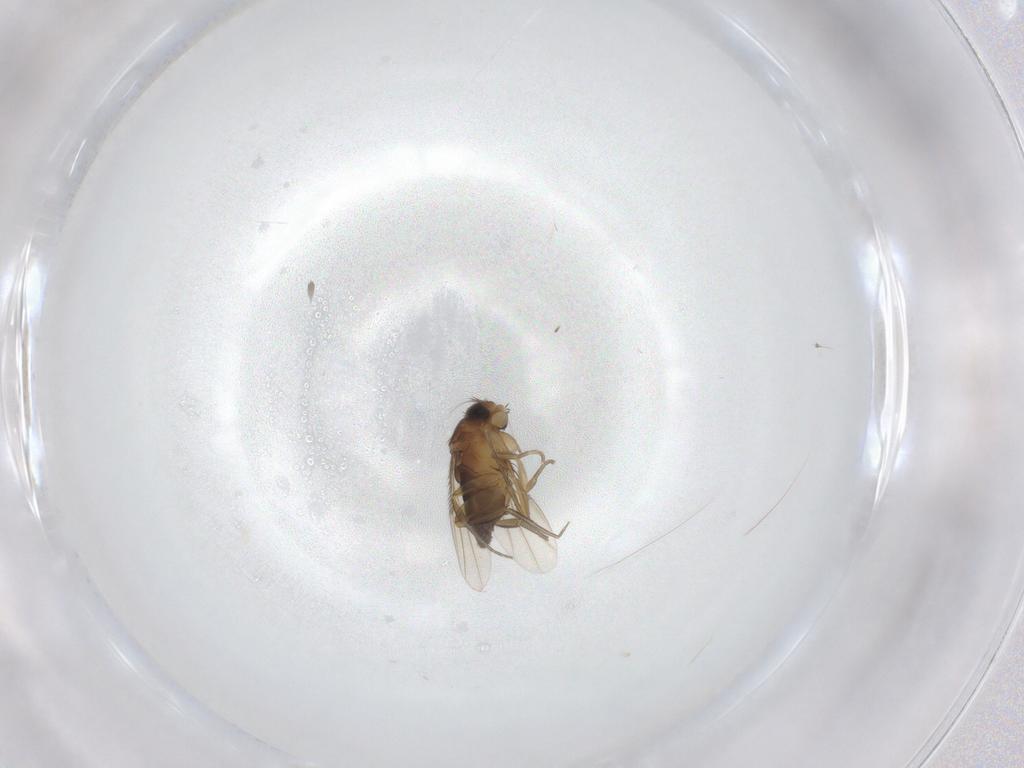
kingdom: Animalia
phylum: Arthropoda
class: Insecta
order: Diptera
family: Phoridae
